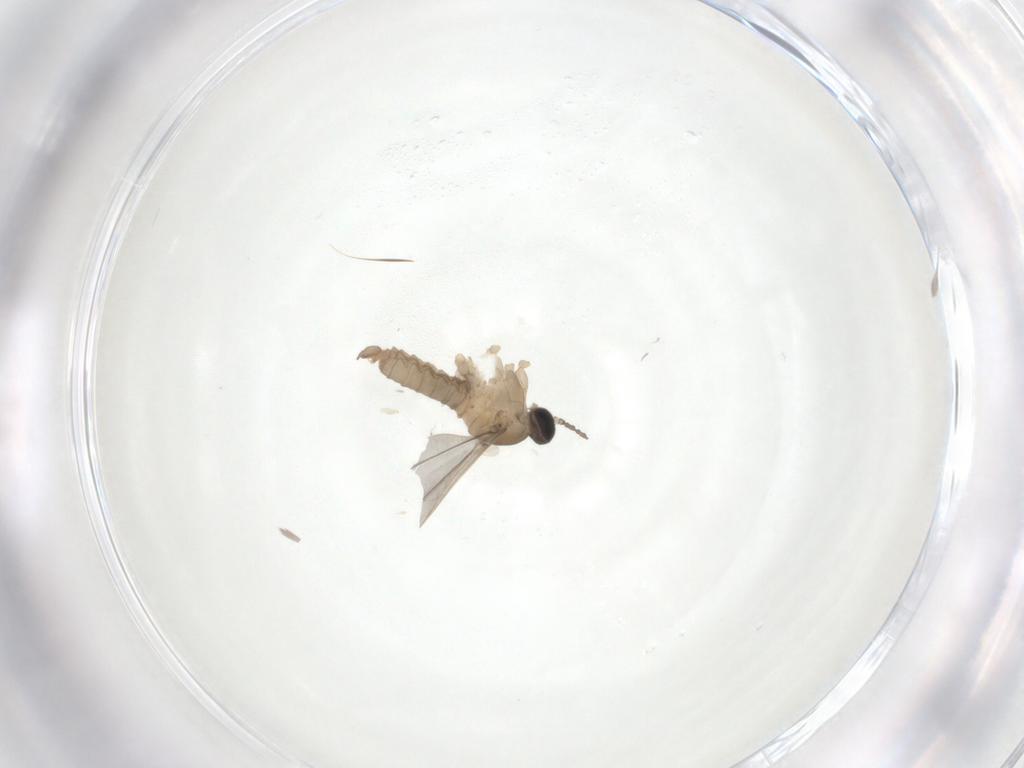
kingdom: Animalia
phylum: Arthropoda
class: Insecta
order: Diptera
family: Cecidomyiidae
